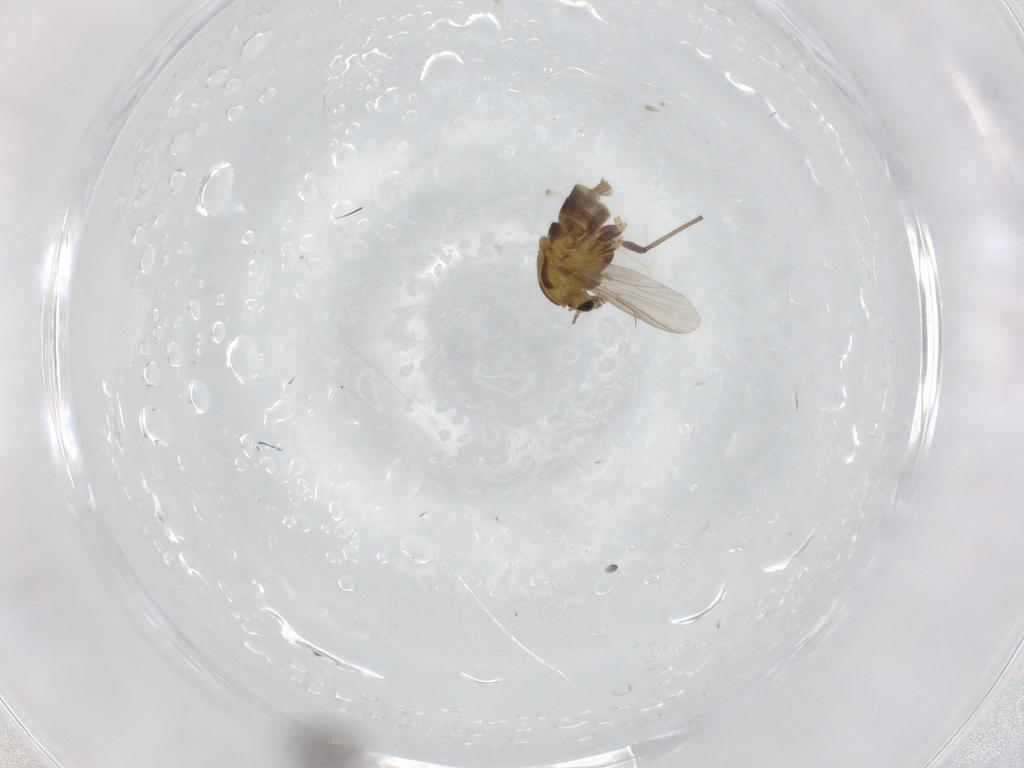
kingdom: Animalia
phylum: Arthropoda
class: Insecta
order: Diptera
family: Chironomidae
